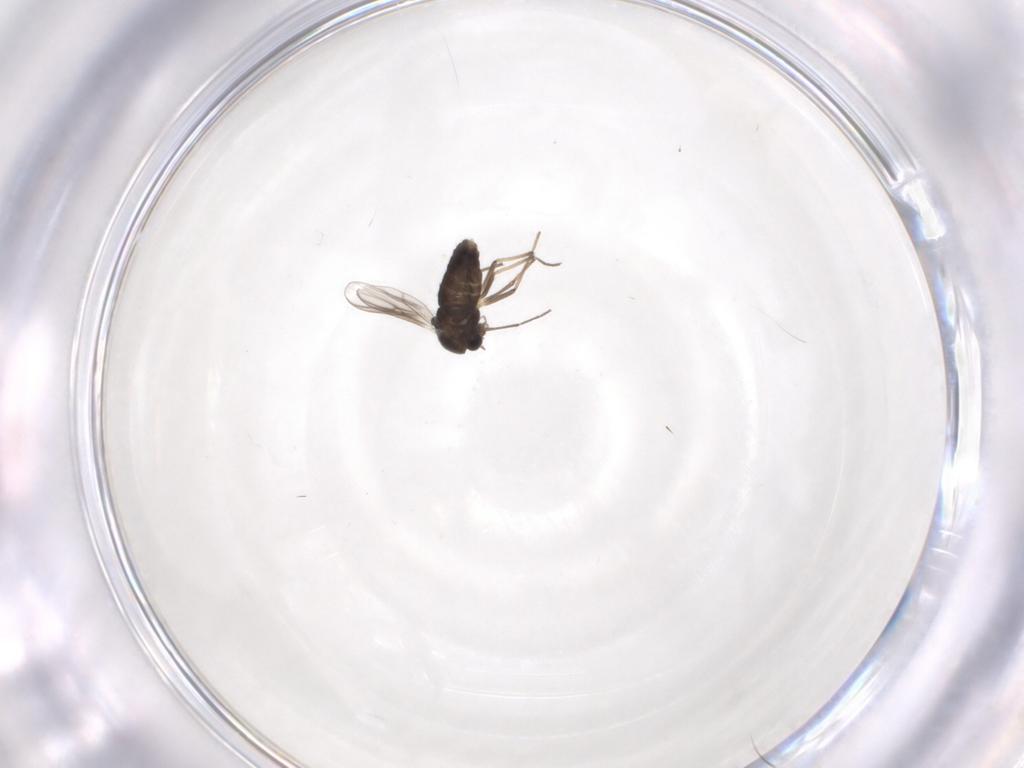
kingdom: Animalia
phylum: Arthropoda
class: Insecta
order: Diptera
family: Chironomidae
